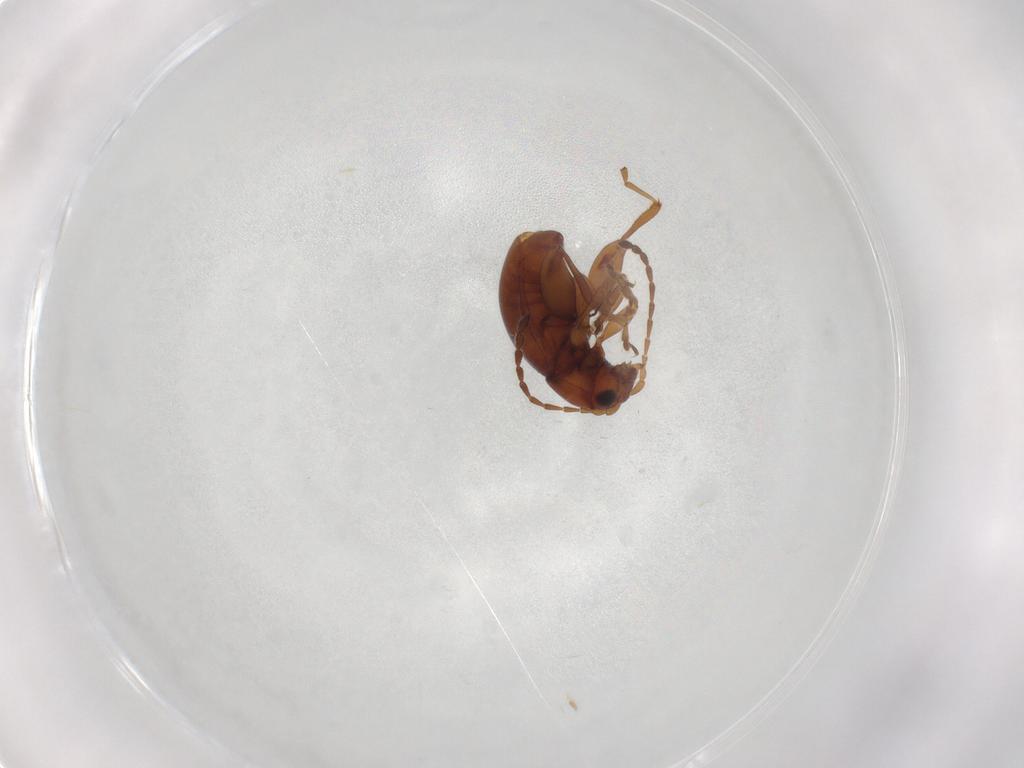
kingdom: Animalia
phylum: Arthropoda
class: Insecta
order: Coleoptera
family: Chrysomelidae
